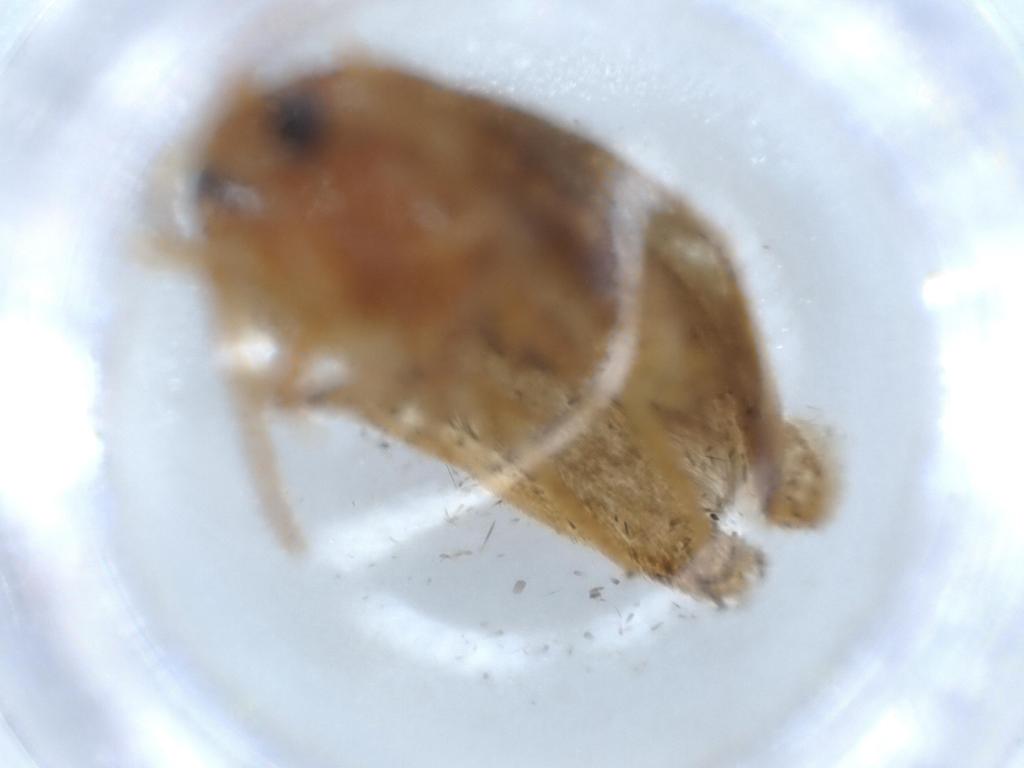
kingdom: Animalia
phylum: Arthropoda
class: Insecta
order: Lepidoptera
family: Blastobasidae
